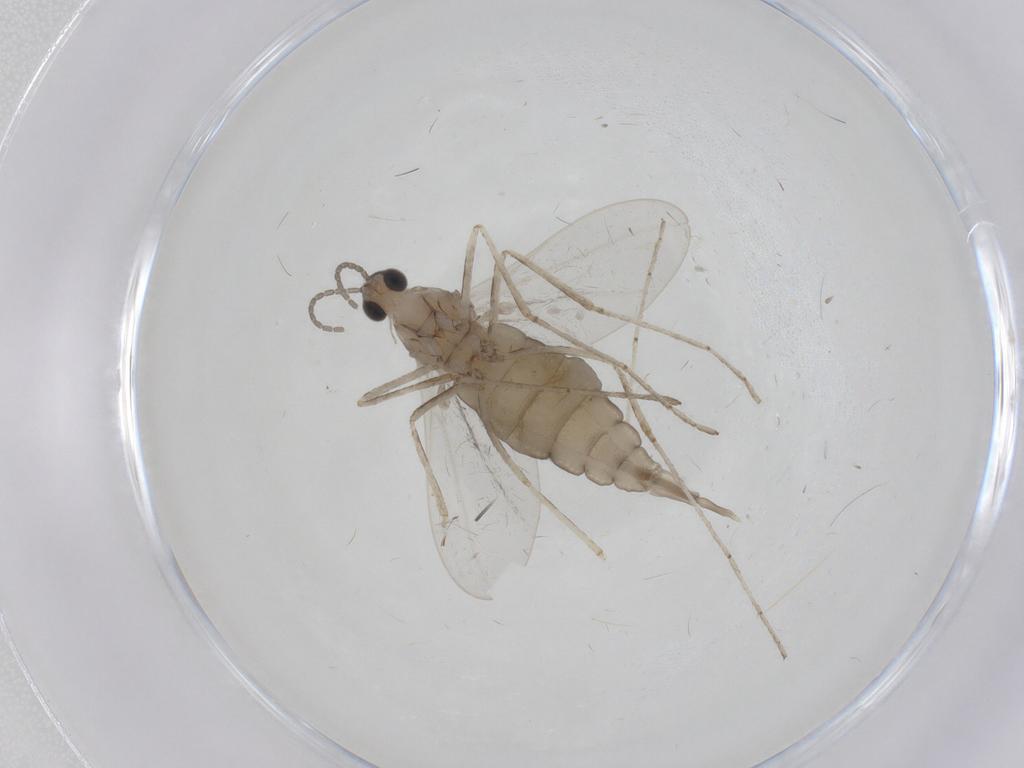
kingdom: Animalia
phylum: Arthropoda
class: Insecta
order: Diptera
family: Cecidomyiidae
